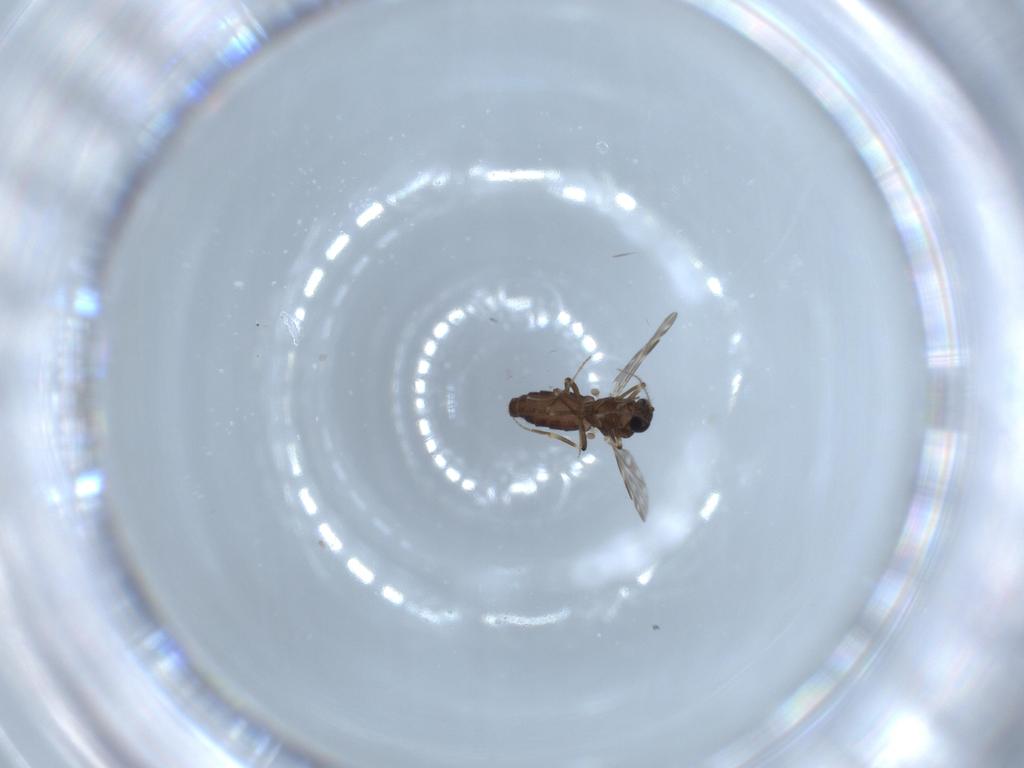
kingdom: Animalia
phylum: Arthropoda
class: Insecta
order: Diptera
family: Ceratopogonidae
